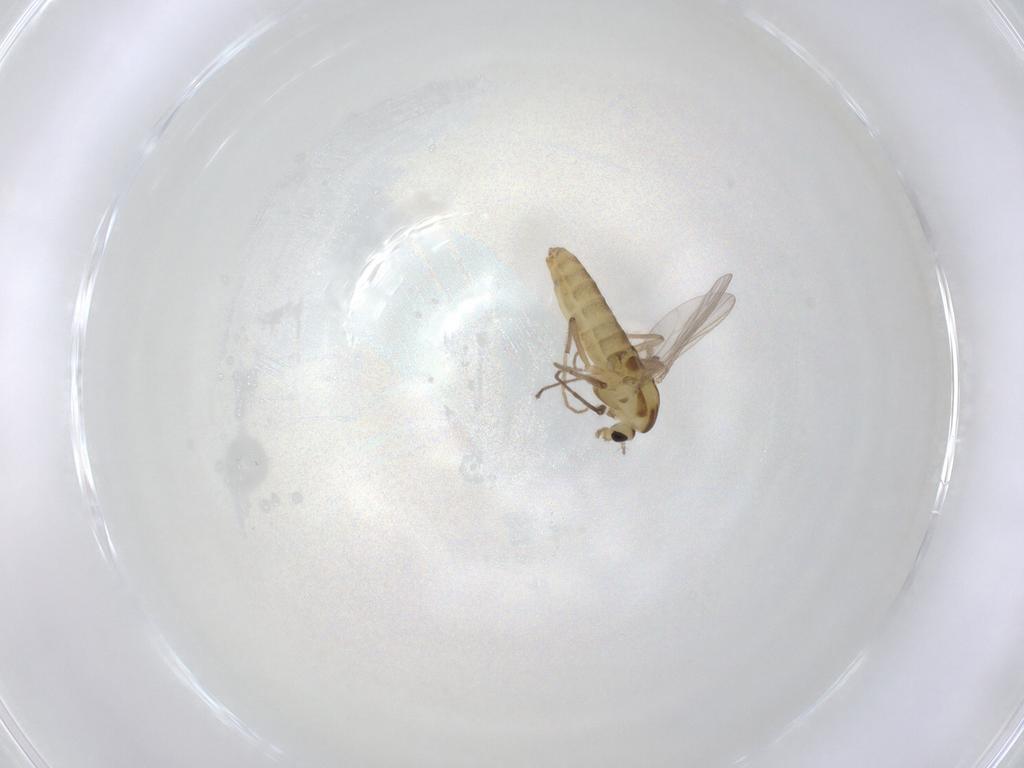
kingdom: Animalia
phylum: Arthropoda
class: Insecta
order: Diptera
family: Chironomidae
